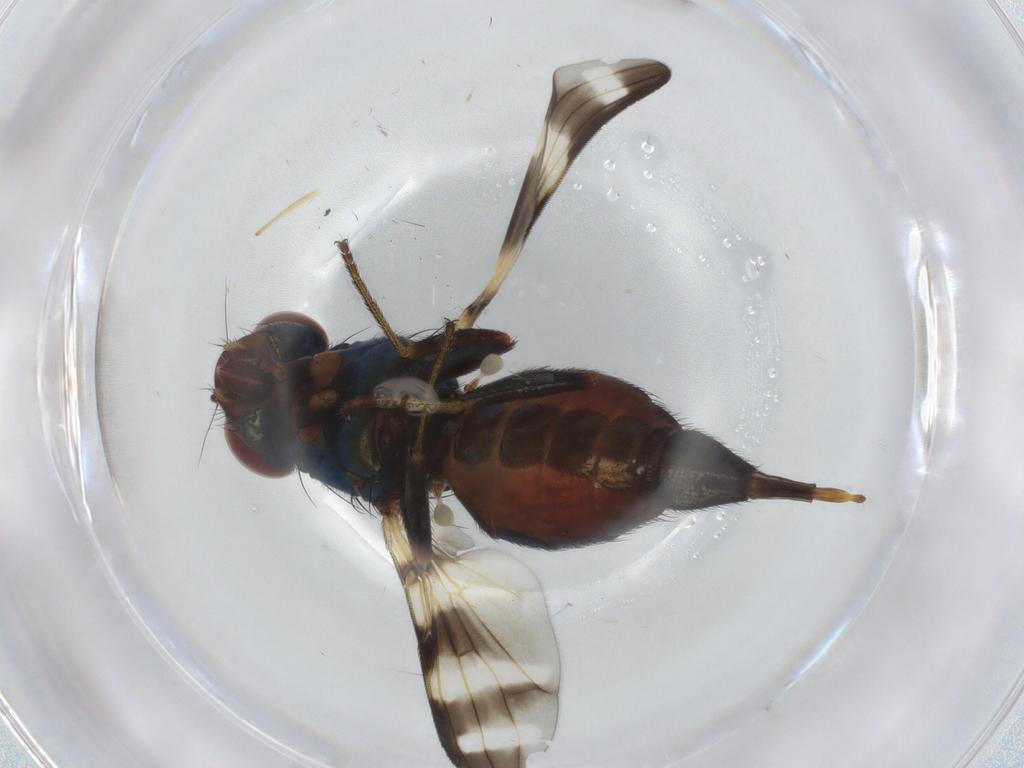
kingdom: Animalia
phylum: Arthropoda
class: Insecta
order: Diptera
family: Ulidiidae
